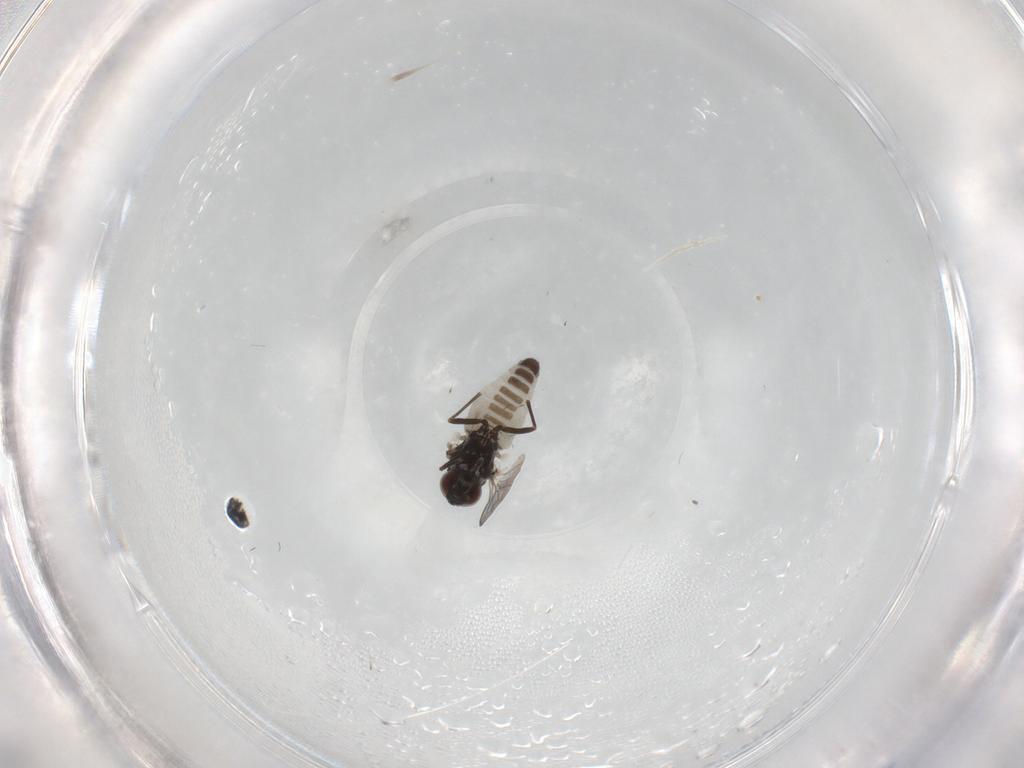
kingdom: Animalia
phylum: Arthropoda
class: Insecta
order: Diptera
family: Bombyliidae
